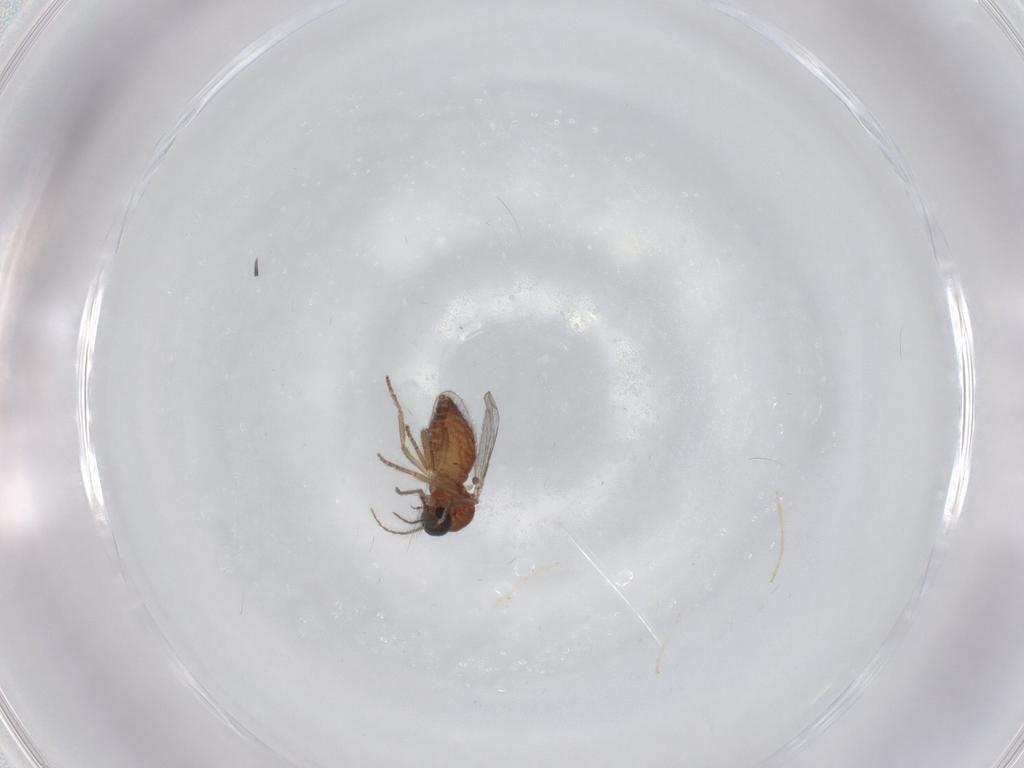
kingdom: Animalia
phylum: Arthropoda
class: Insecta
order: Diptera
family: Ceratopogonidae
